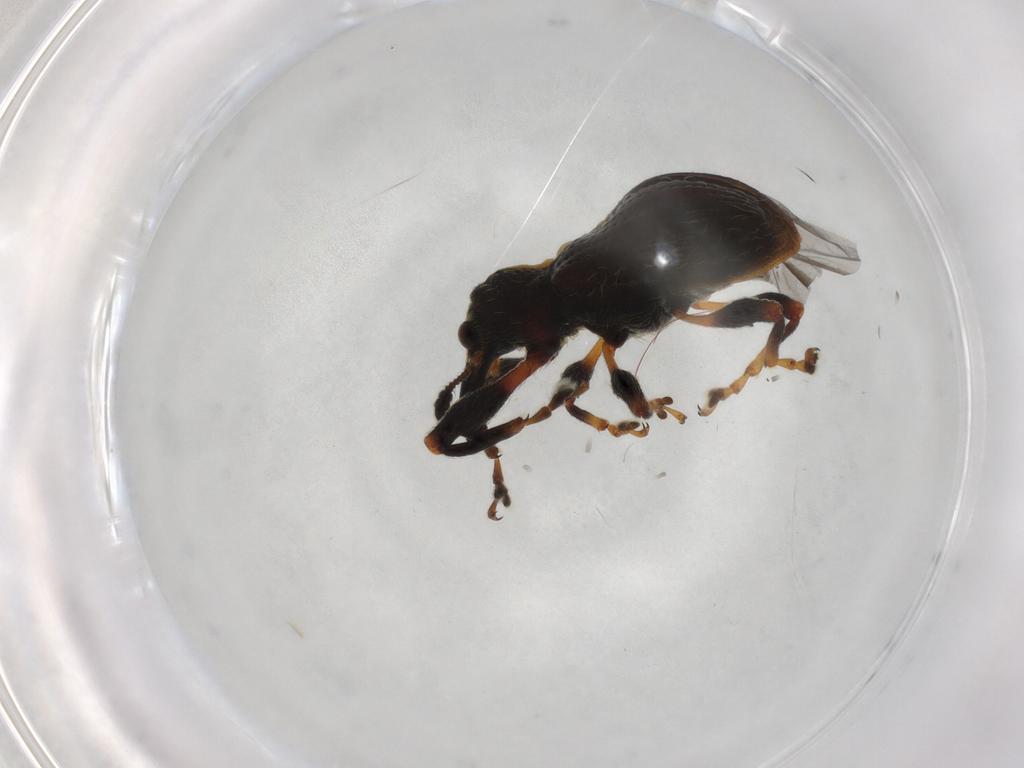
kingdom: Animalia
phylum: Arthropoda
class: Insecta
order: Coleoptera
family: Curculionidae
